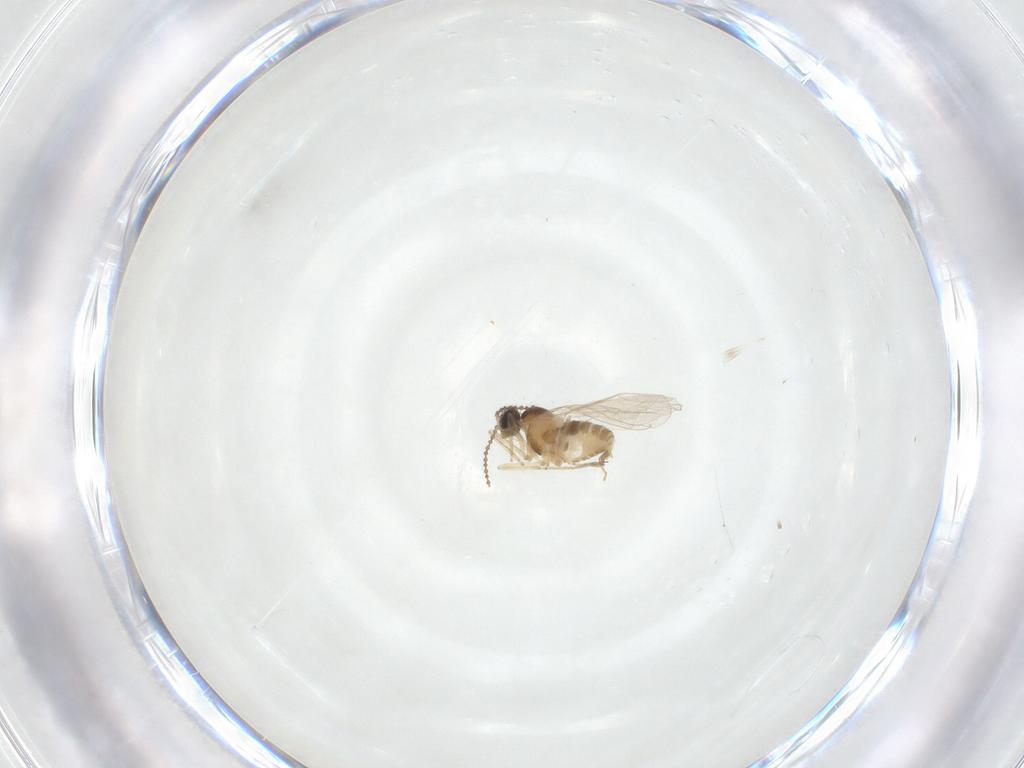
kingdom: Animalia
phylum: Arthropoda
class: Insecta
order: Diptera
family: Cecidomyiidae
